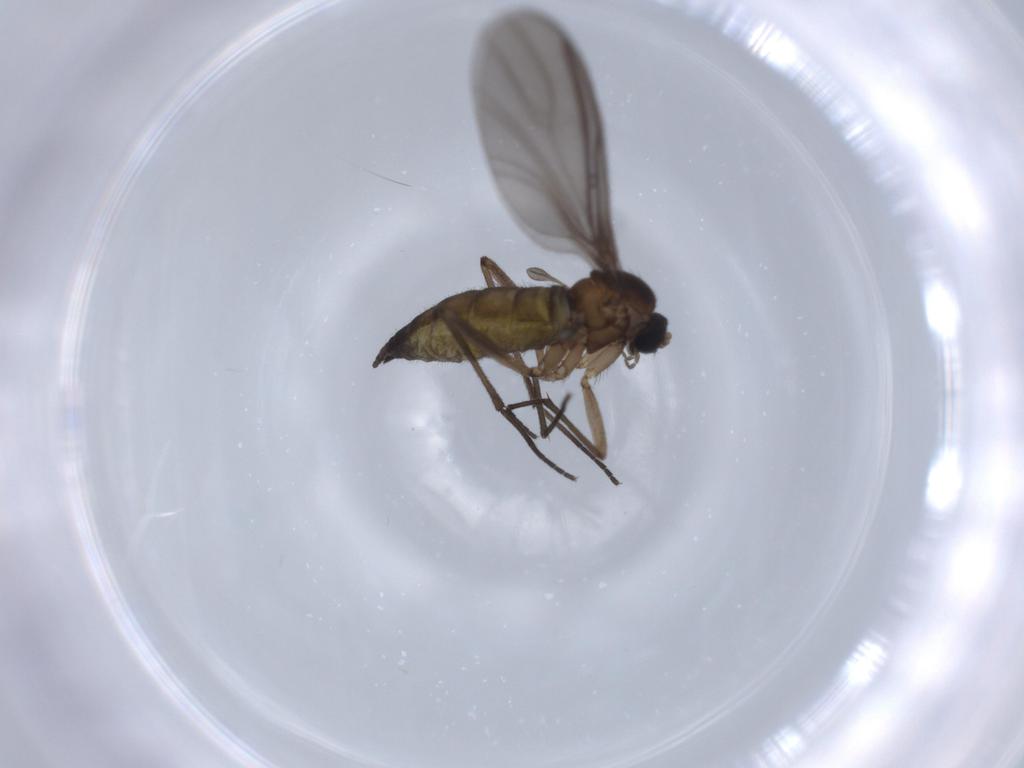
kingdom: Animalia
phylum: Arthropoda
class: Insecta
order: Diptera
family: Sciaridae
